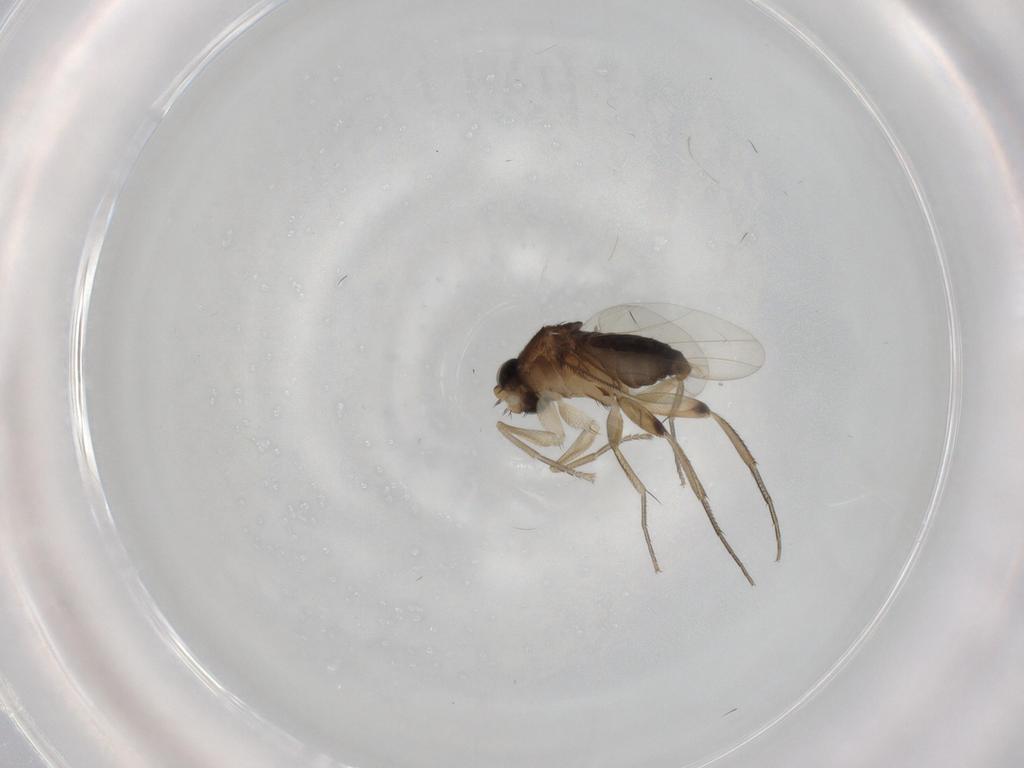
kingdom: Animalia
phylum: Arthropoda
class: Insecta
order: Diptera
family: Phoridae
